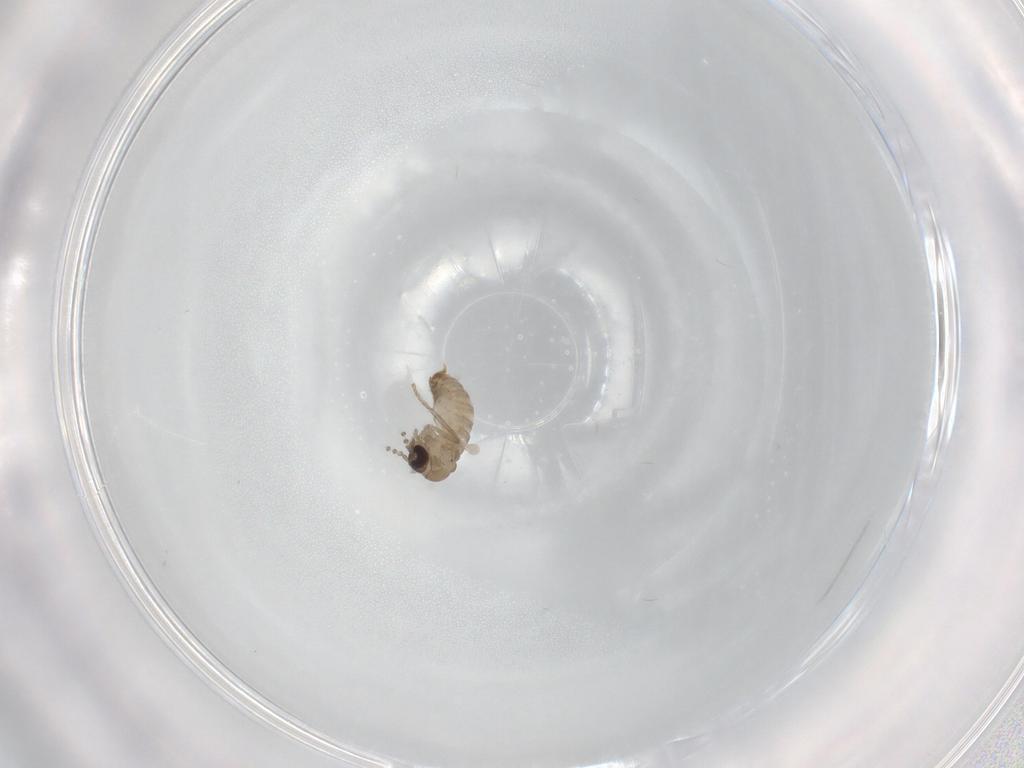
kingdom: Animalia
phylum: Arthropoda
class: Insecta
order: Diptera
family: Psychodidae
